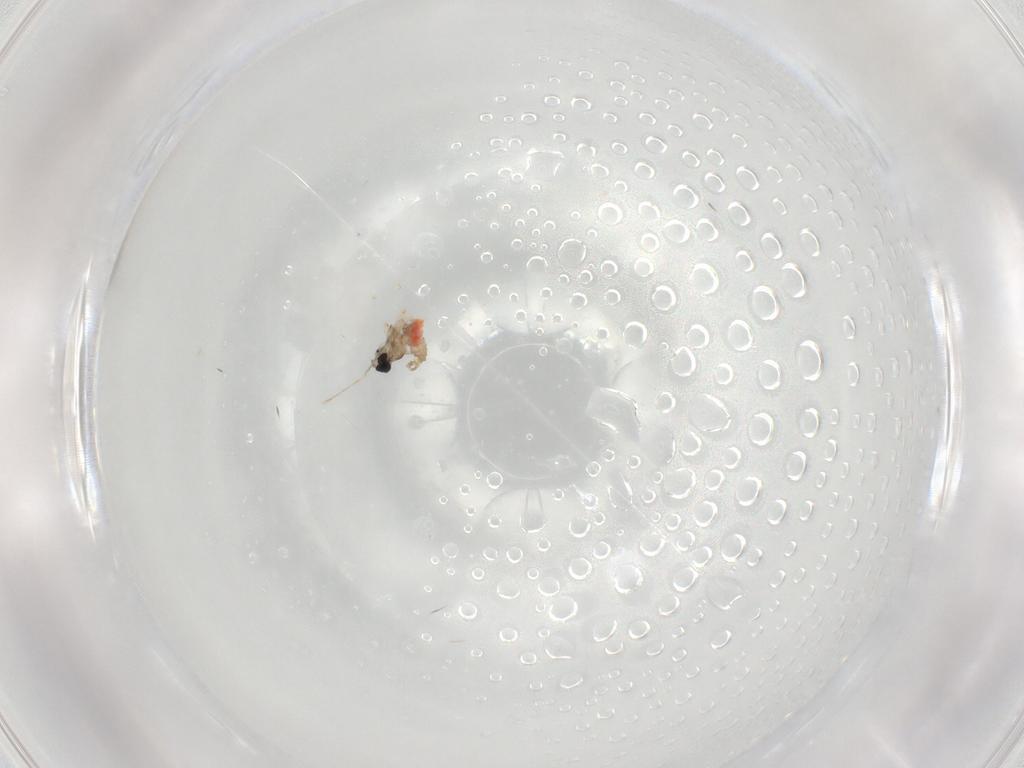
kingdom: Animalia
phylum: Arthropoda
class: Insecta
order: Diptera
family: Cecidomyiidae
